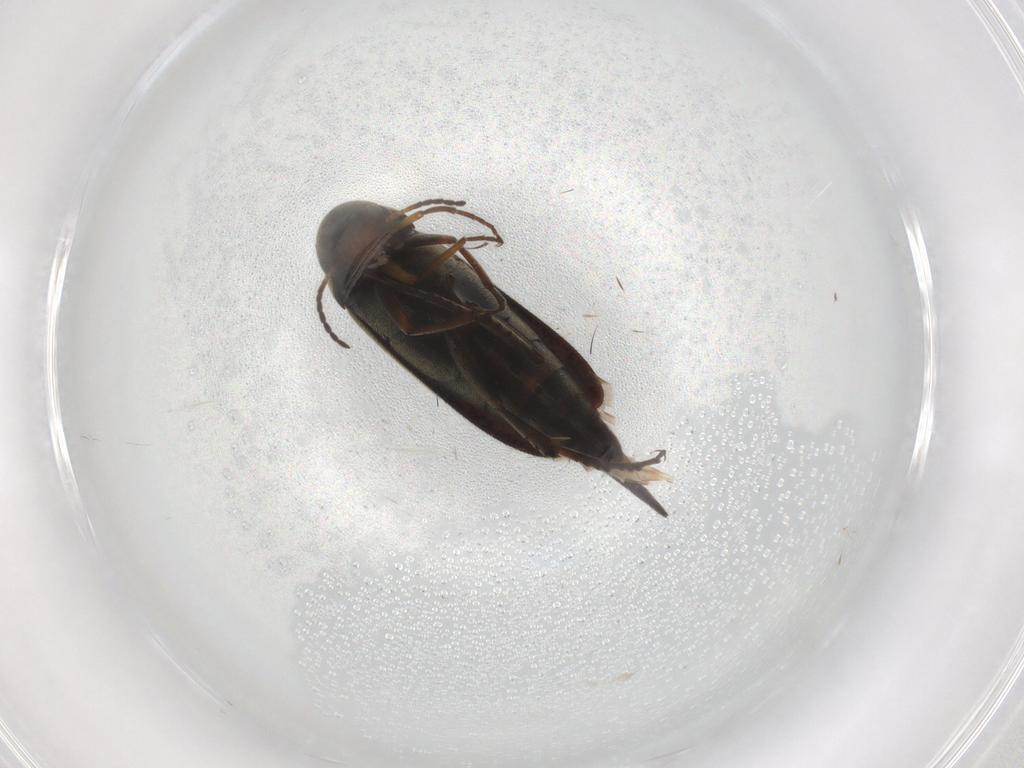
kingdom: Animalia
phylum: Arthropoda
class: Insecta
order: Coleoptera
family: Mordellidae
